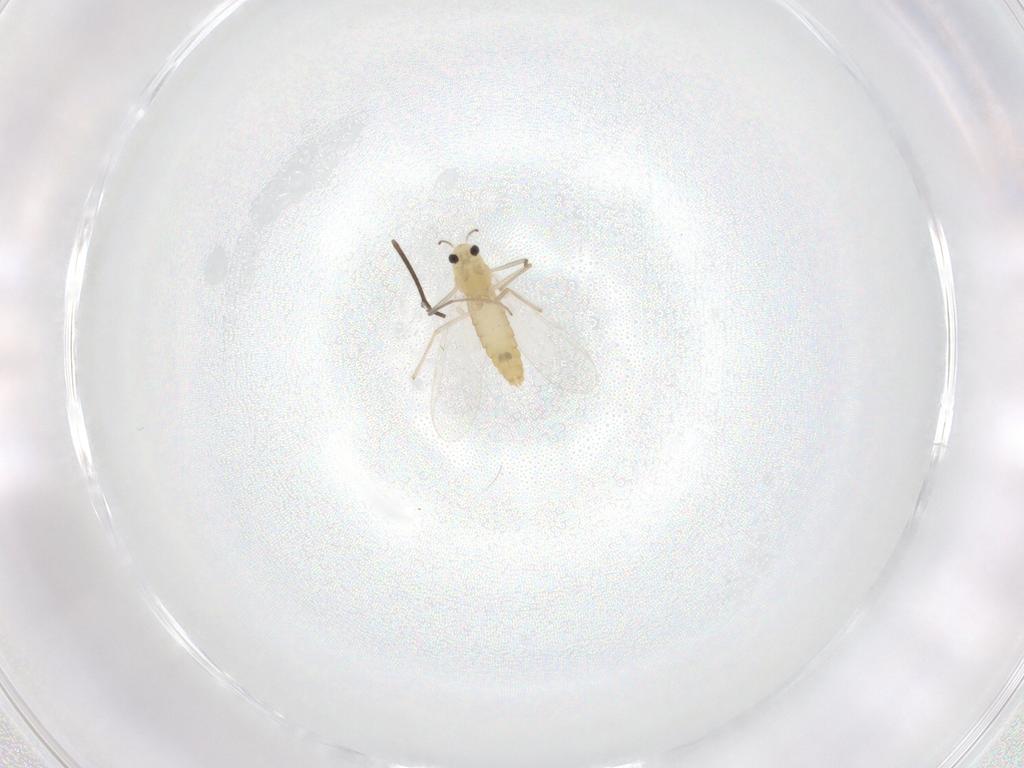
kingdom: Animalia
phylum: Arthropoda
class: Insecta
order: Diptera
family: Chironomidae
